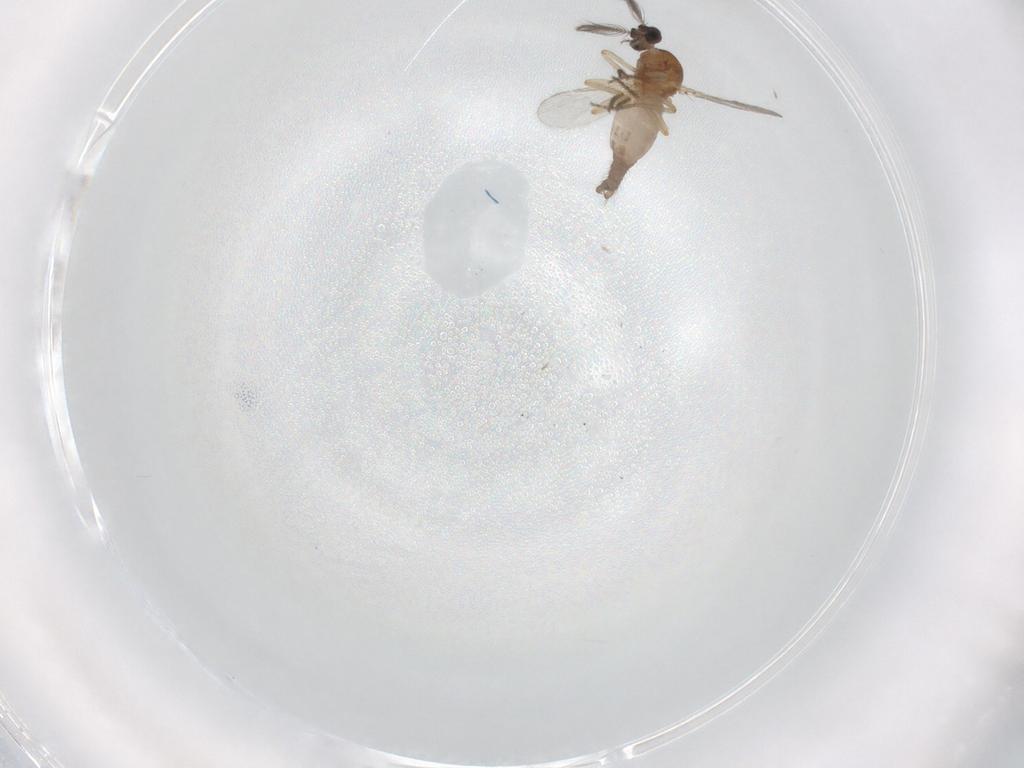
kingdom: Animalia
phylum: Arthropoda
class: Insecta
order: Diptera
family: Ceratopogonidae
